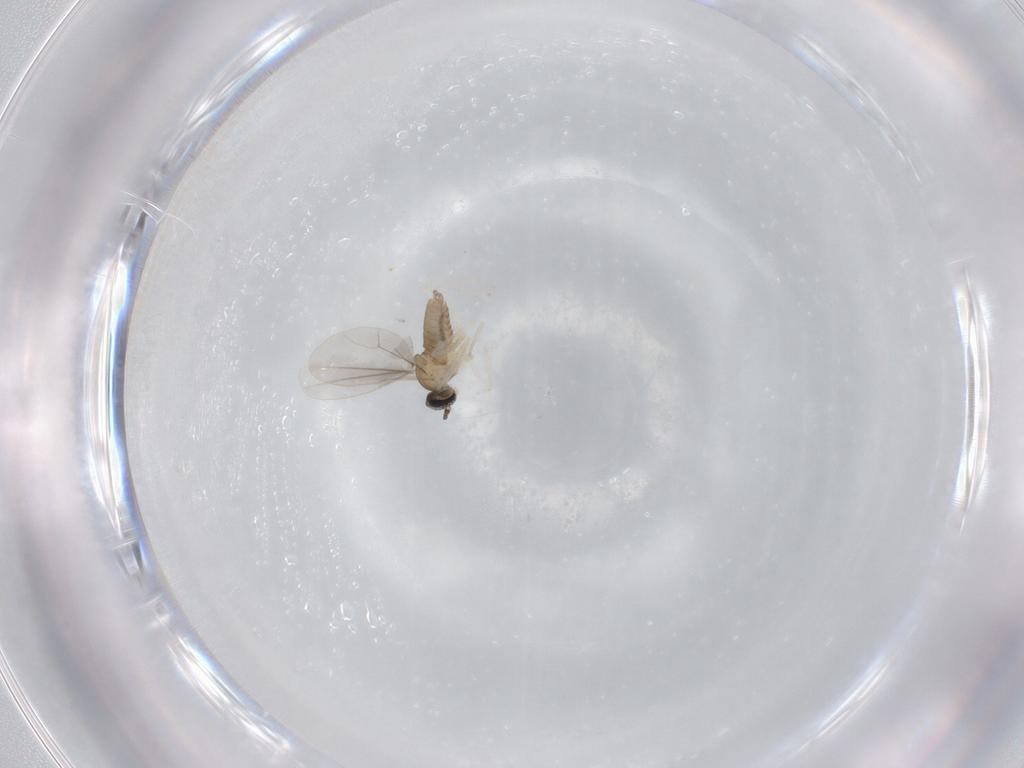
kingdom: Animalia
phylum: Arthropoda
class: Insecta
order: Diptera
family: Cecidomyiidae
